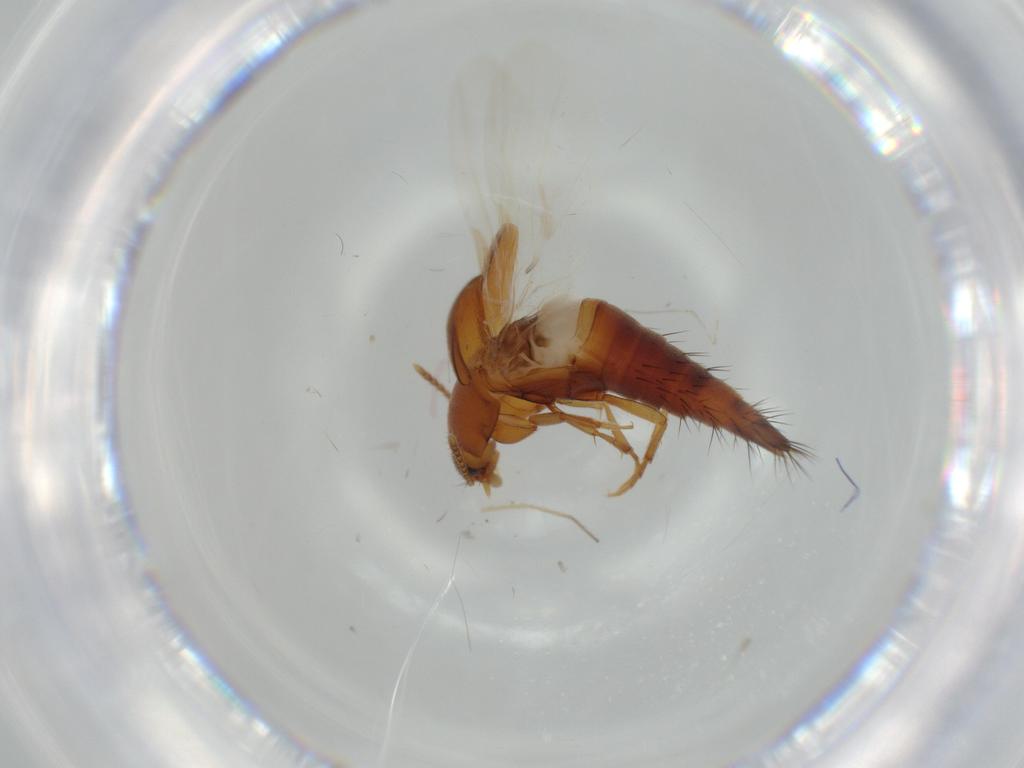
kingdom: Animalia
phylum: Arthropoda
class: Insecta
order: Coleoptera
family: Staphylinidae
